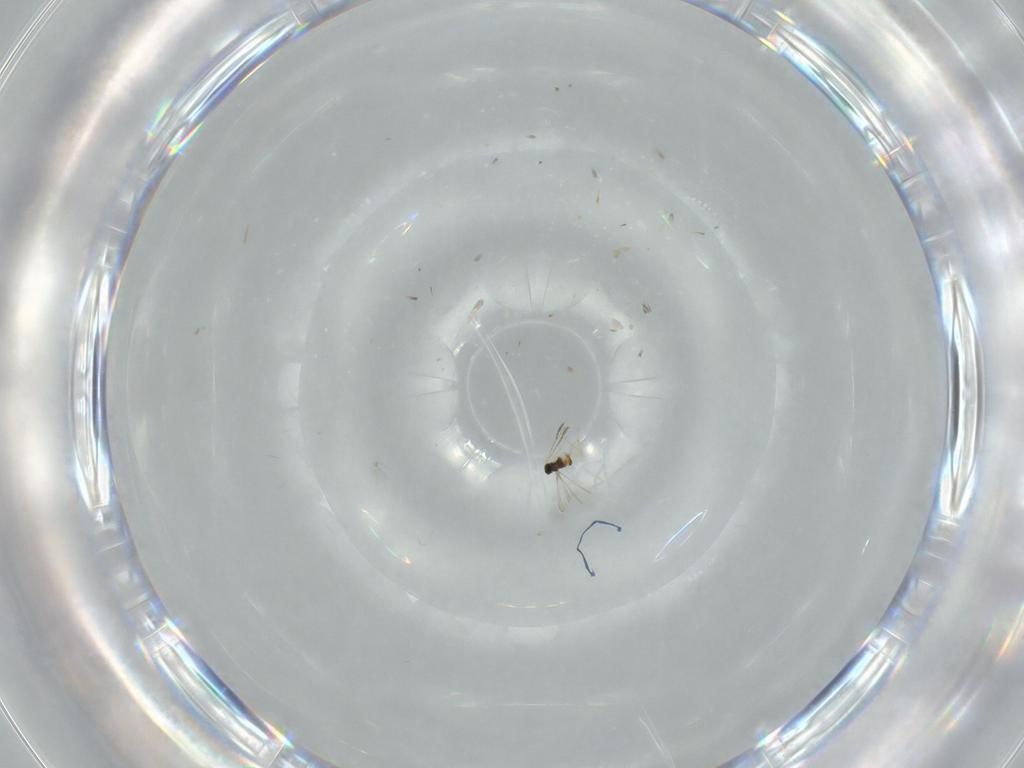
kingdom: Animalia
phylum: Arthropoda
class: Insecta
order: Hymenoptera
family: Mymaridae
